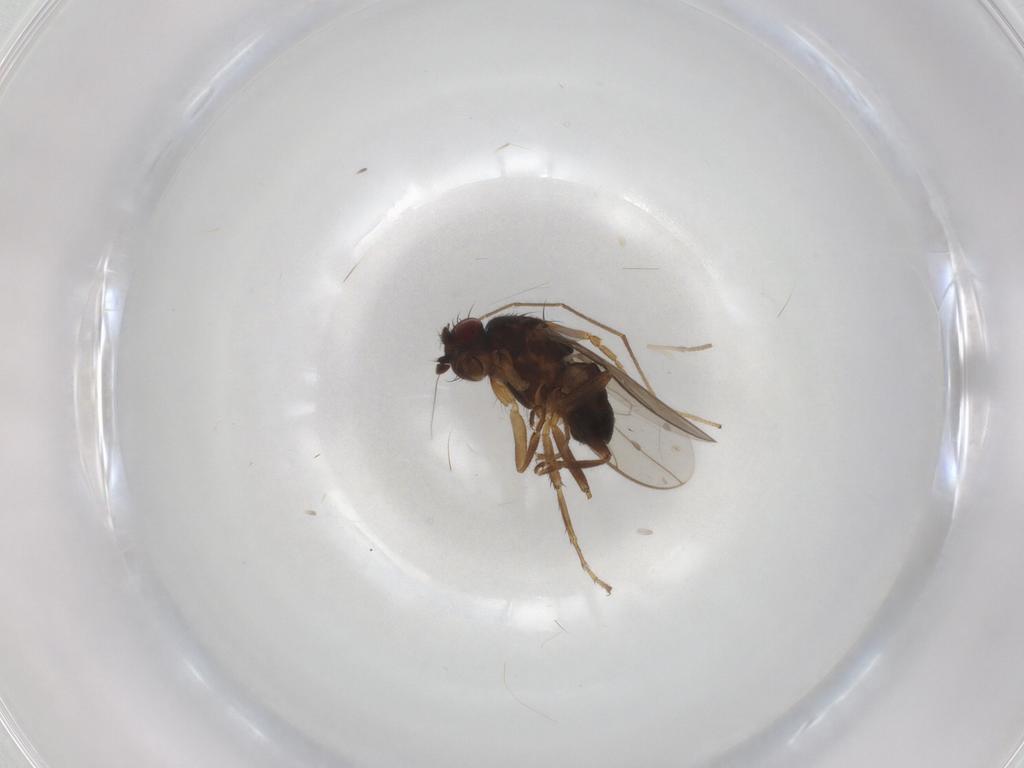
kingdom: Animalia
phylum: Arthropoda
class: Insecta
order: Diptera
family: Sphaeroceridae
